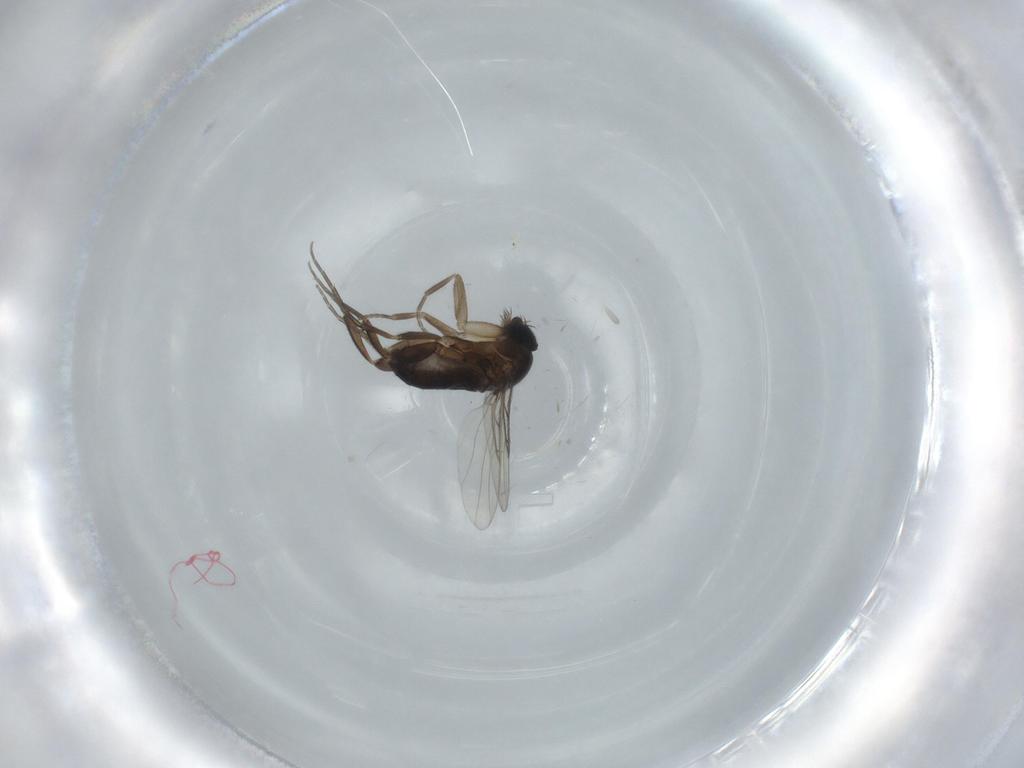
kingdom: Animalia
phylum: Arthropoda
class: Insecta
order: Diptera
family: Phoridae
